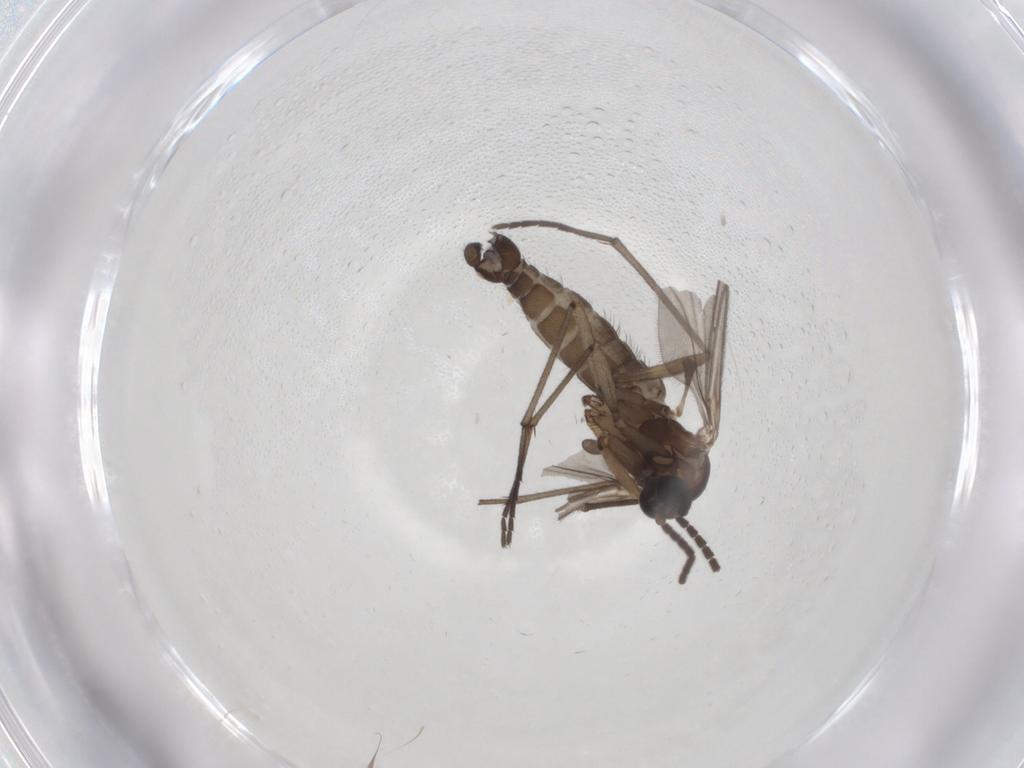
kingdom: Animalia
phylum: Arthropoda
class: Insecta
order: Diptera
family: Sciaridae
